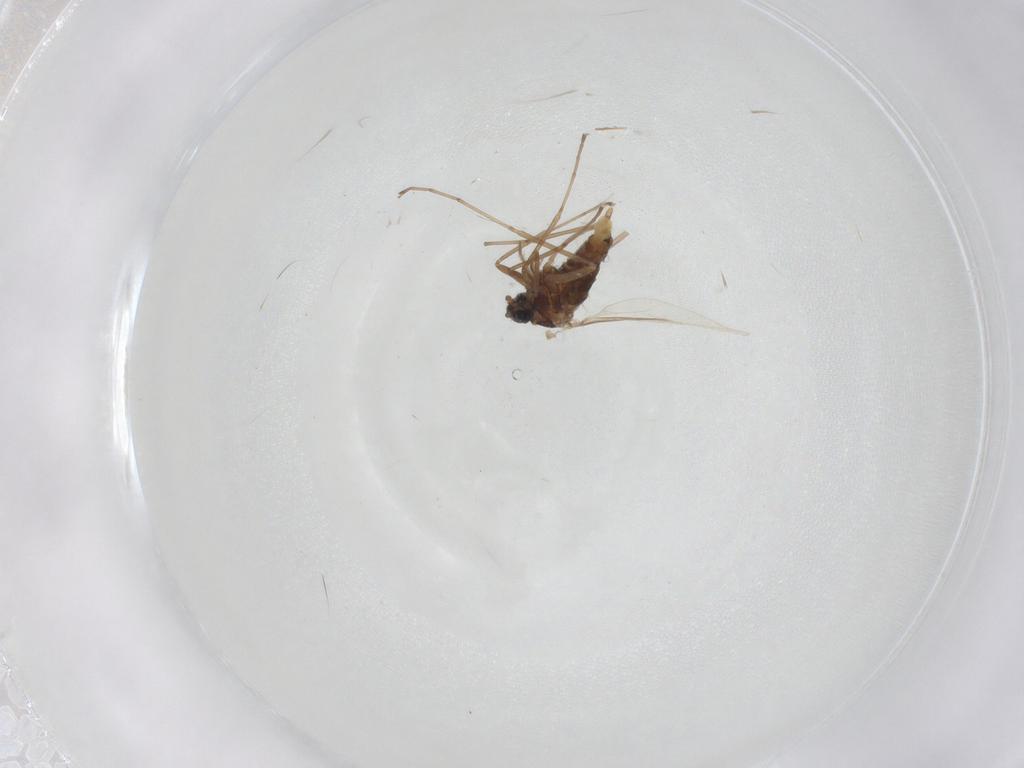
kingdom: Animalia
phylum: Arthropoda
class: Insecta
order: Diptera
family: Cecidomyiidae
